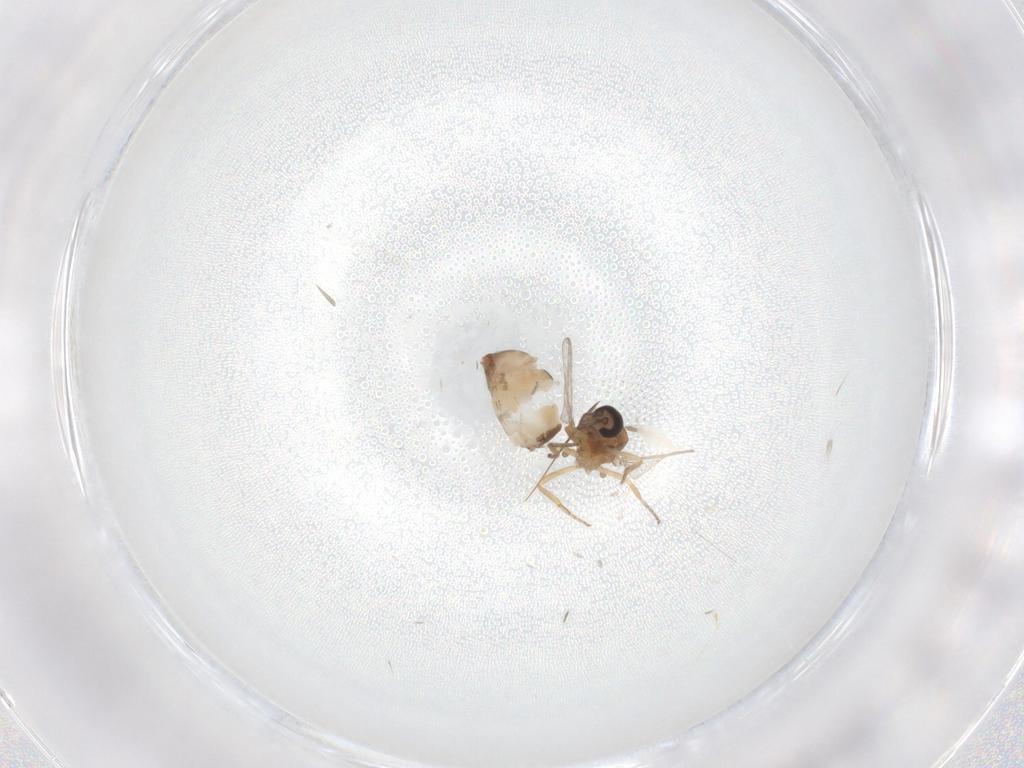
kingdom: Animalia
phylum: Arthropoda
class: Insecta
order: Diptera
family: Ceratopogonidae
